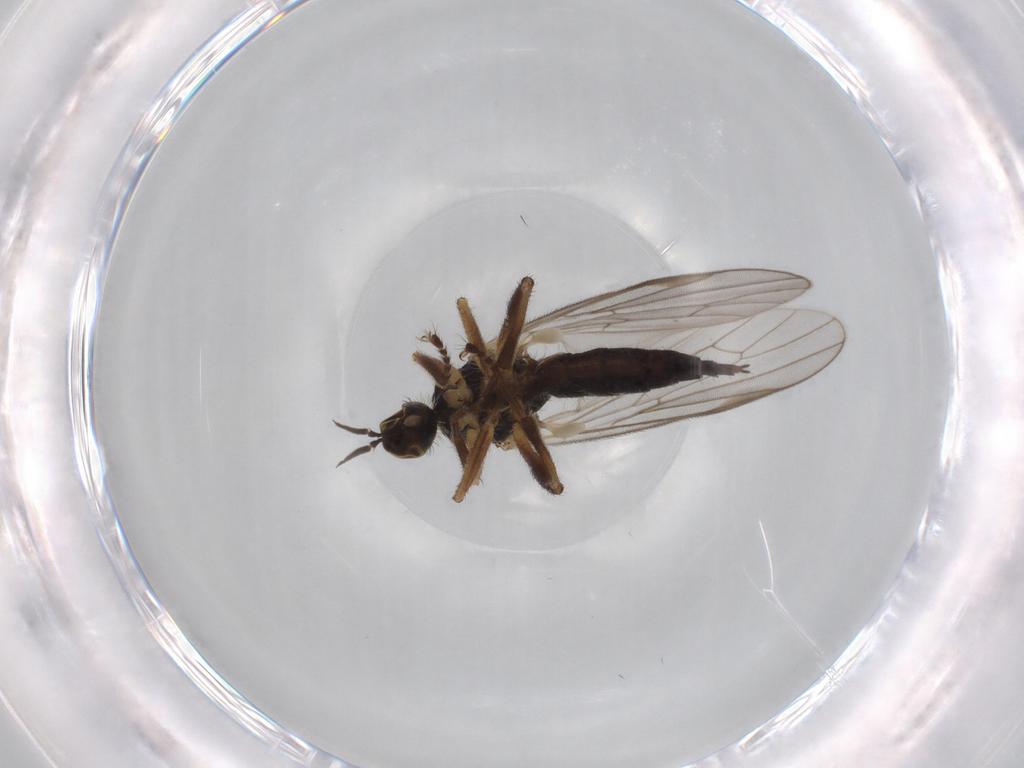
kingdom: Animalia
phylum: Arthropoda
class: Insecta
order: Diptera
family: Hybotidae
